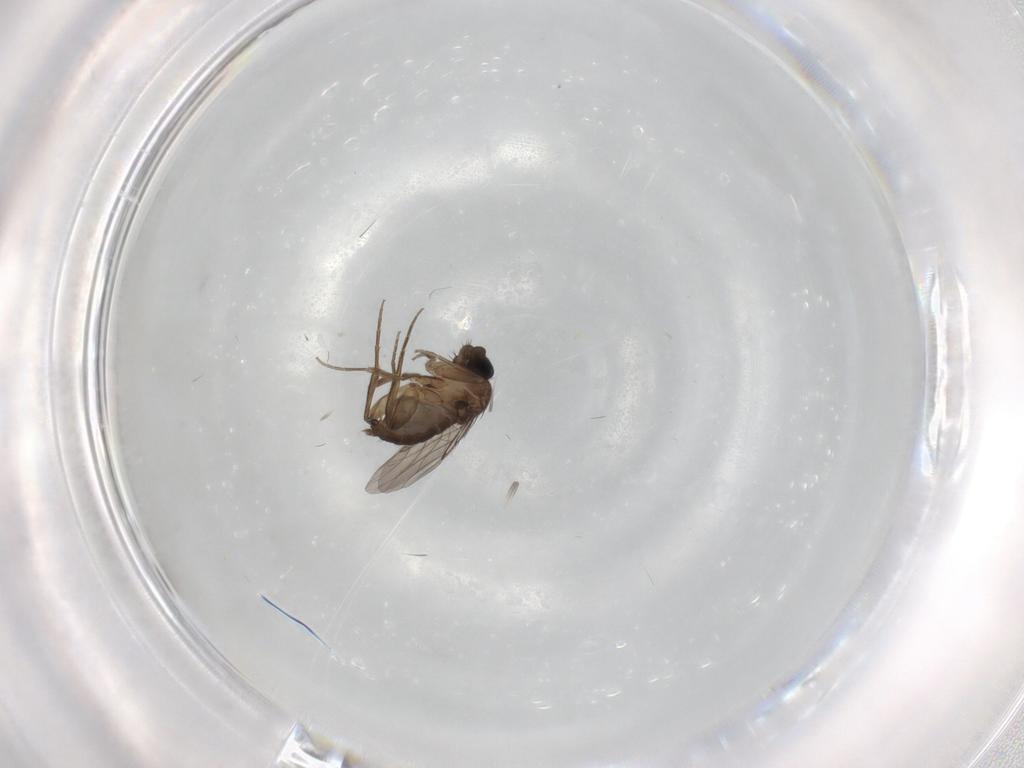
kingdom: Animalia
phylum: Arthropoda
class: Insecta
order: Diptera
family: Phoridae
